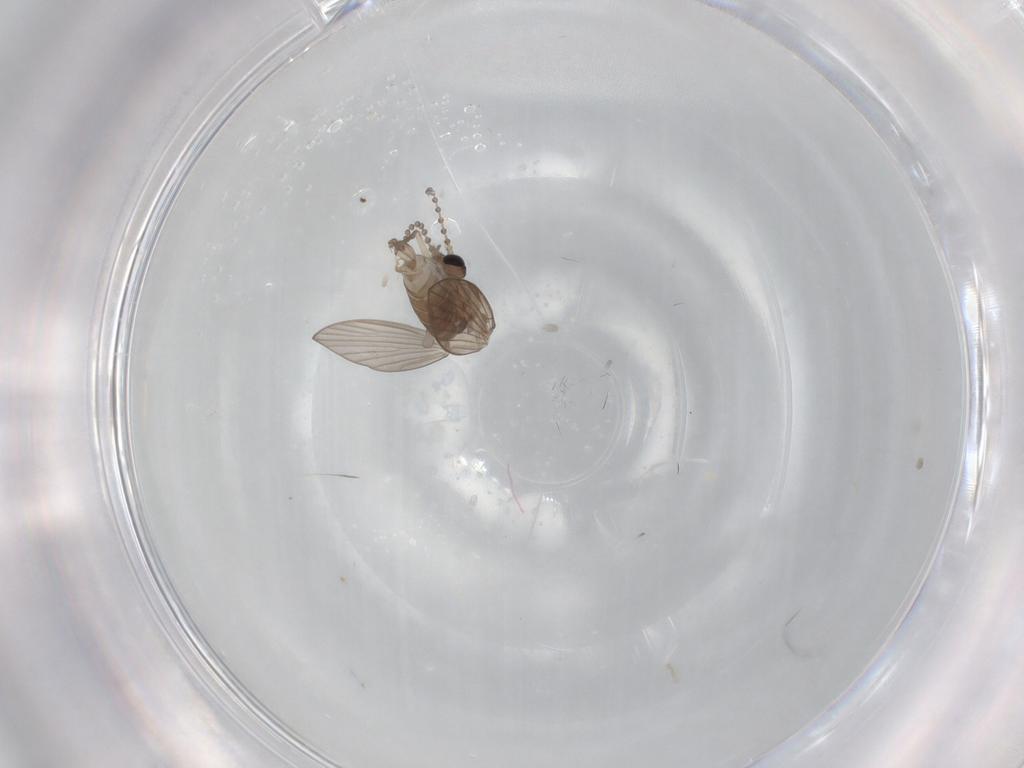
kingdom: Animalia
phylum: Arthropoda
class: Insecta
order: Diptera
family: Psychodidae
